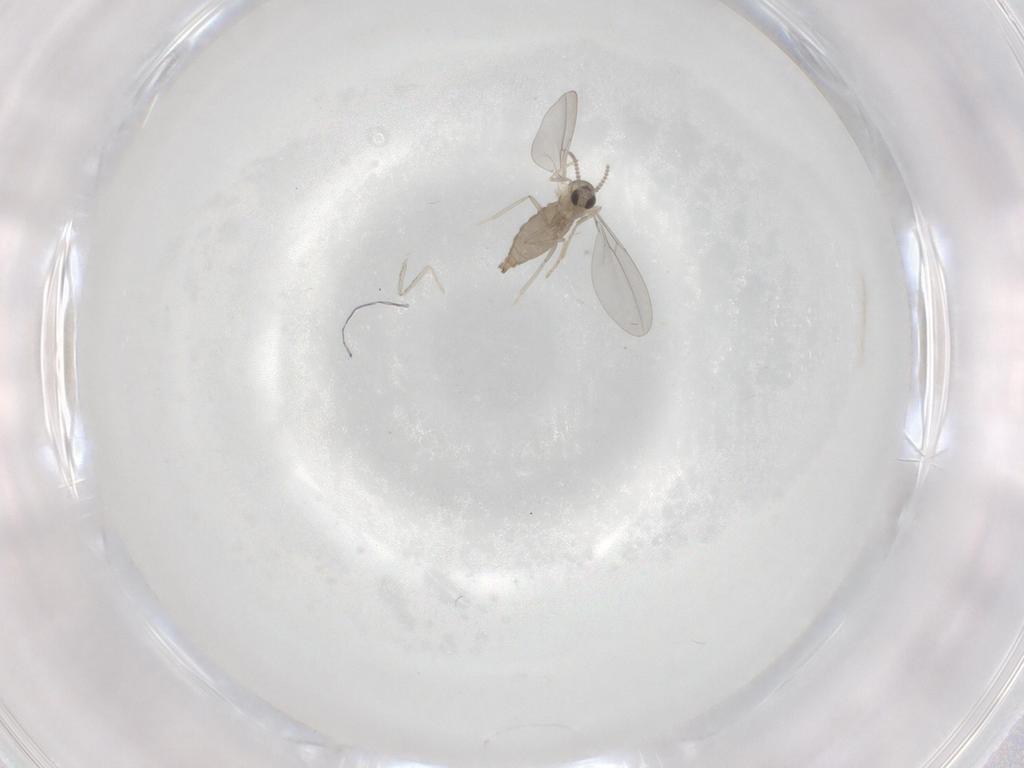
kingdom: Animalia
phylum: Arthropoda
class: Insecta
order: Diptera
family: Cecidomyiidae
